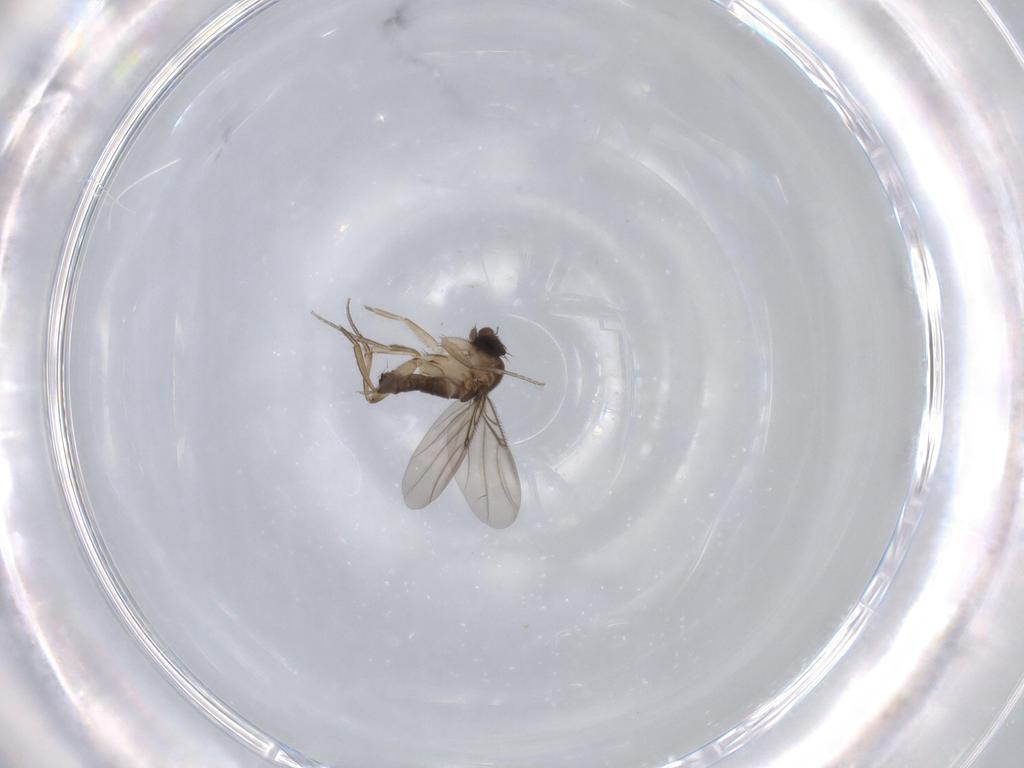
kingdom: Animalia
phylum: Arthropoda
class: Insecta
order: Diptera
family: Phoridae
